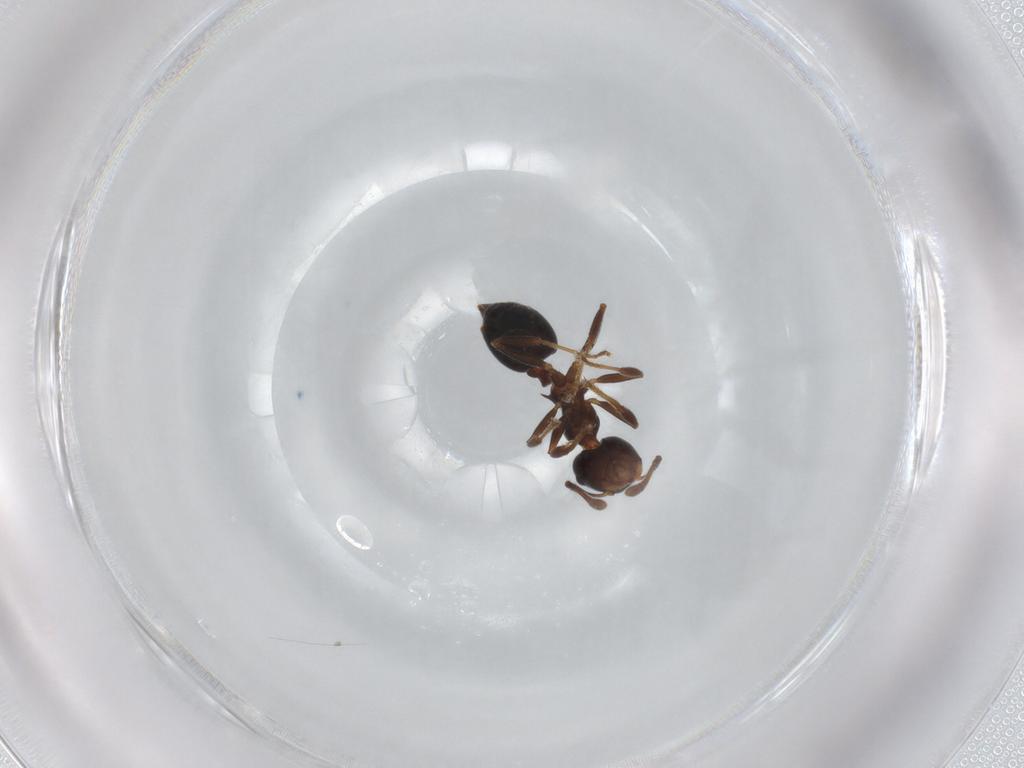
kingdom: Animalia
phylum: Arthropoda
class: Insecta
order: Hymenoptera
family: Formicidae
